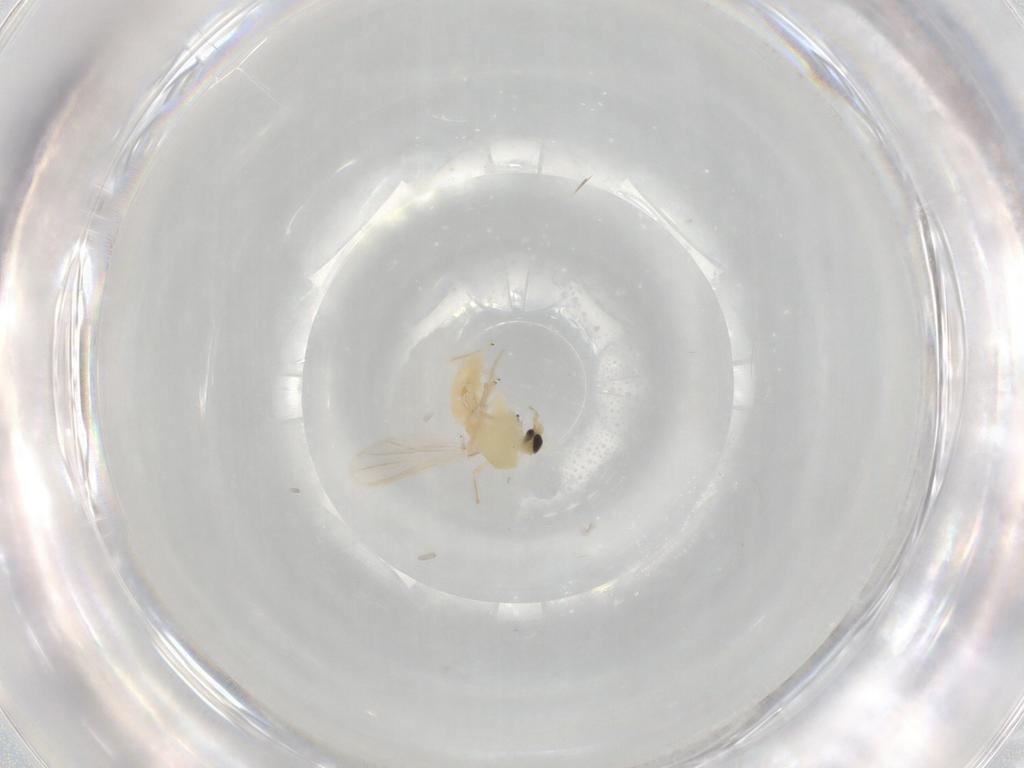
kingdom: Animalia
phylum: Arthropoda
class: Insecta
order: Diptera
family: Chironomidae
